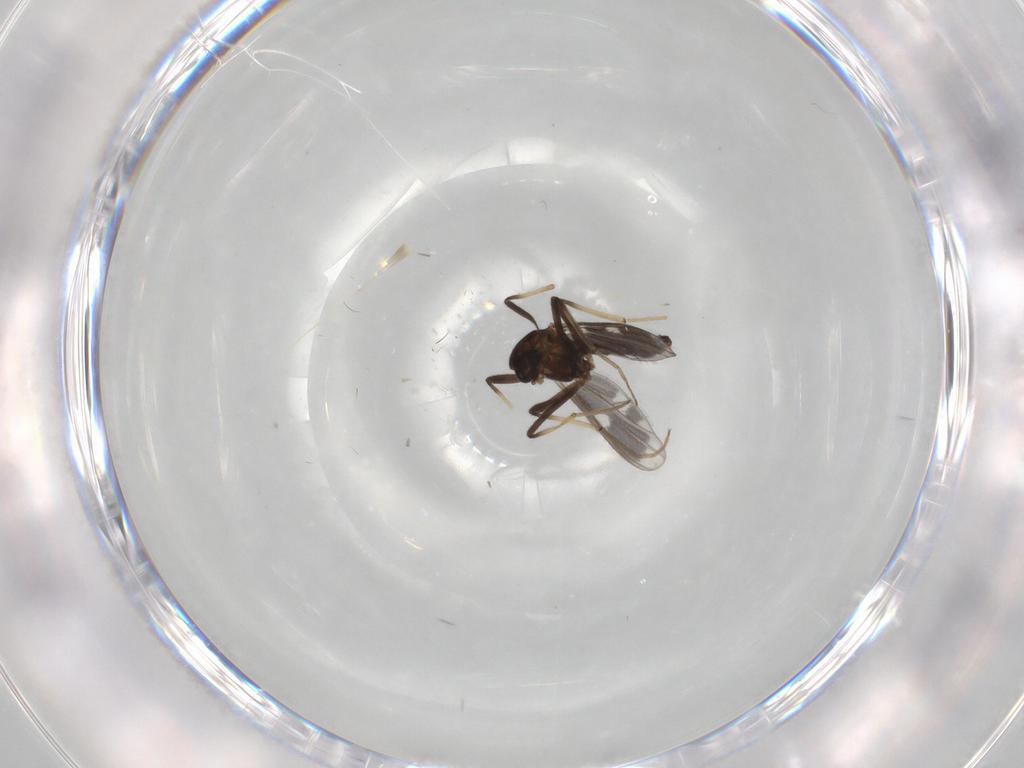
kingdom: Animalia
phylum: Arthropoda
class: Insecta
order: Diptera
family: Chironomidae
